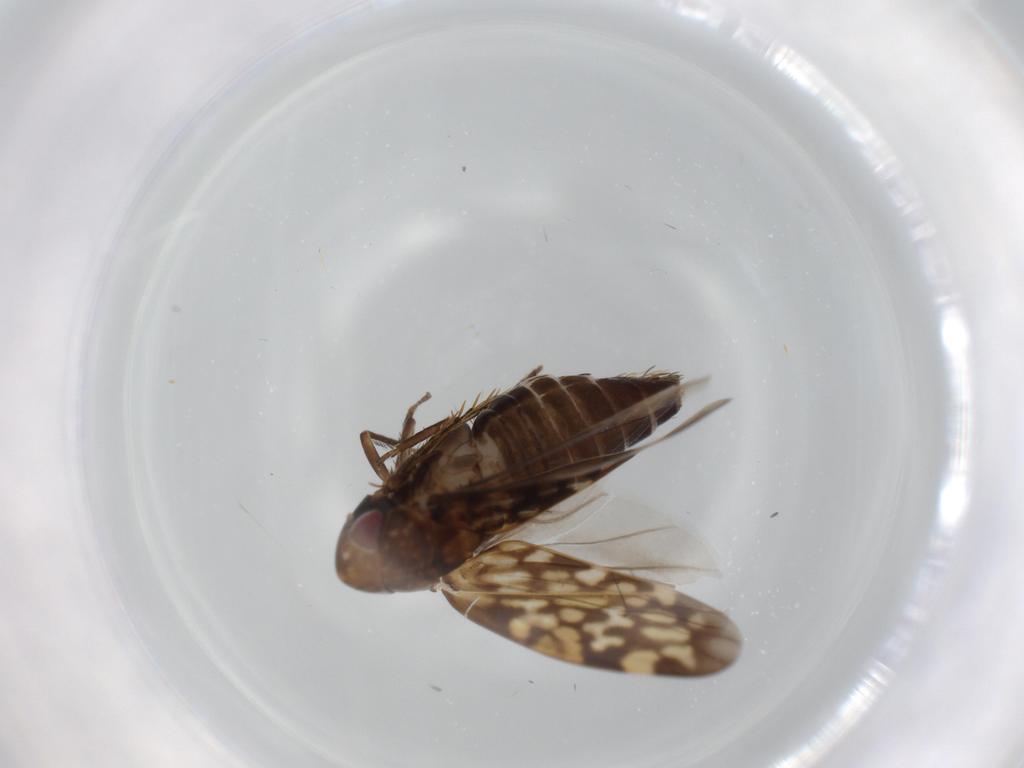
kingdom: Animalia
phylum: Arthropoda
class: Insecta
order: Hemiptera
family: Cicadellidae
